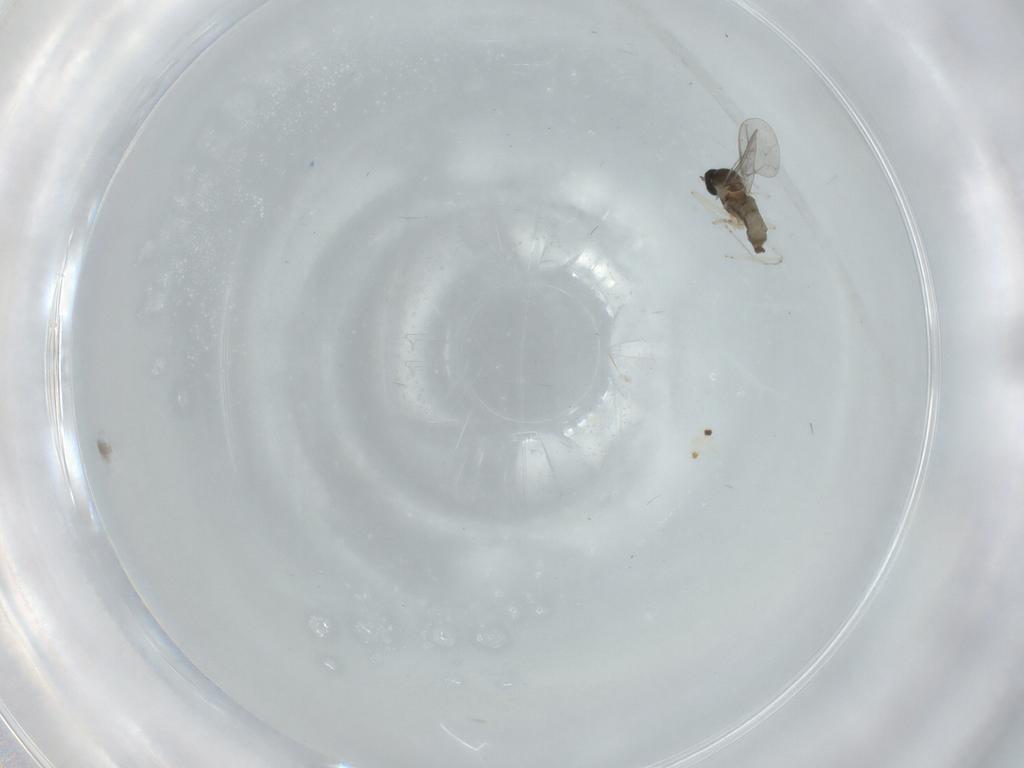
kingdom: Animalia
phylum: Arthropoda
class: Insecta
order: Diptera
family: Cecidomyiidae
